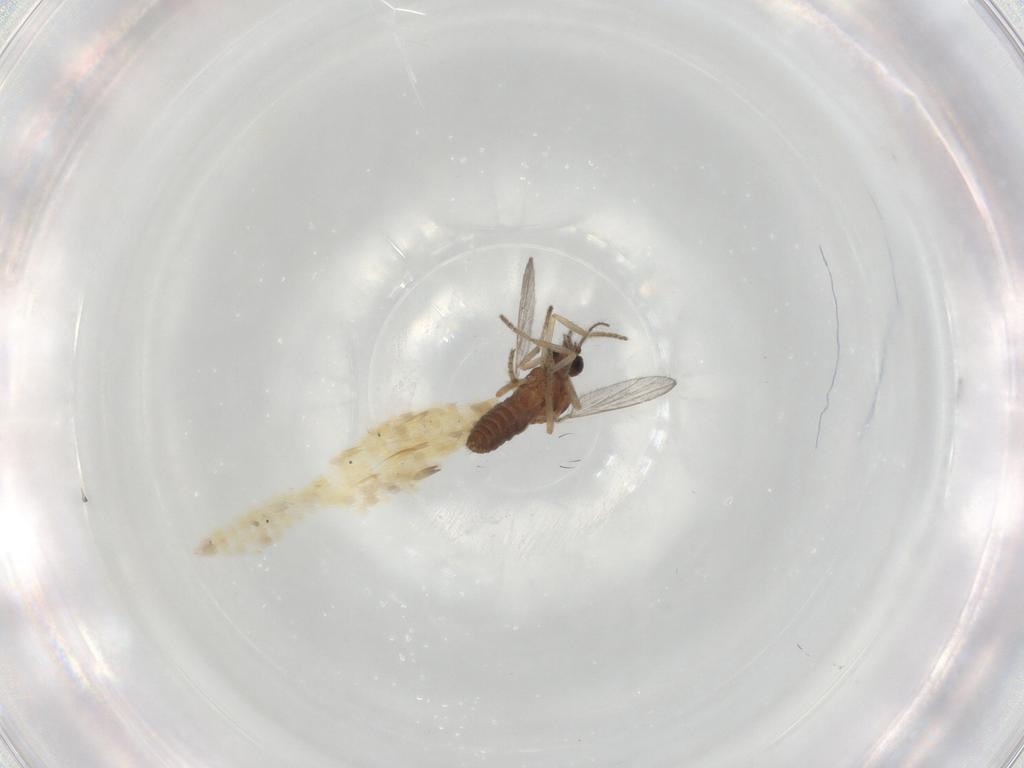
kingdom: Animalia
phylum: Arthropoda
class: Insecta
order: Diptera
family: Ceratopogonidae
